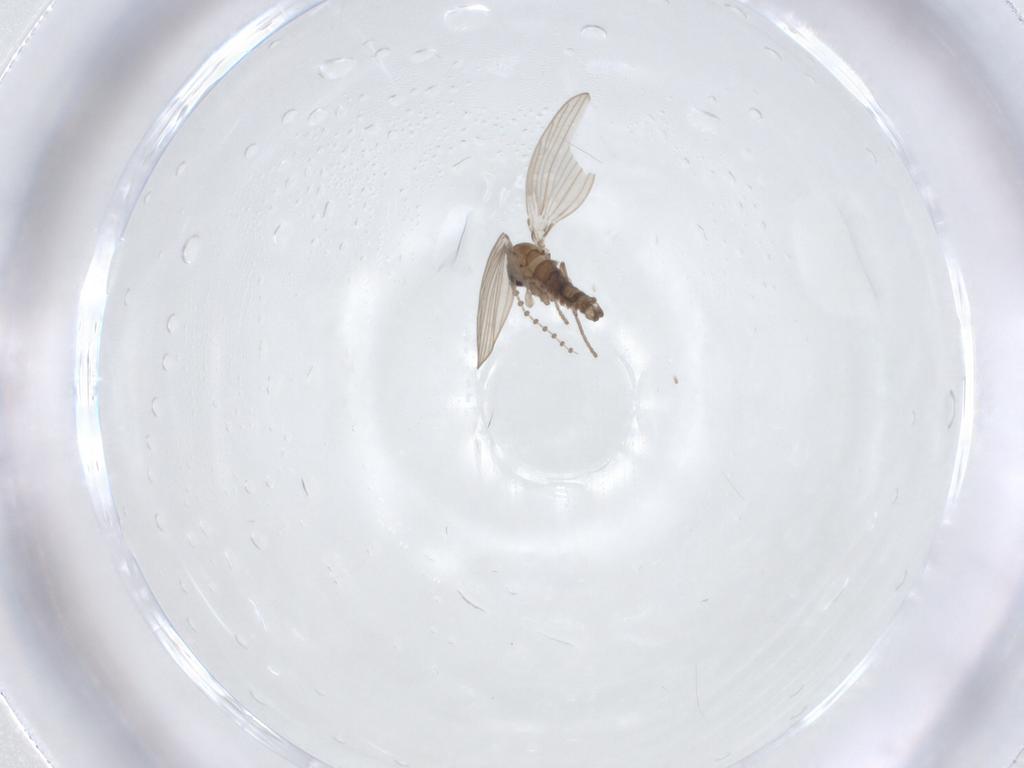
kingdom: Animalia
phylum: Arthropoda
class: Insecta
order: Diptera
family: Psychodidae
